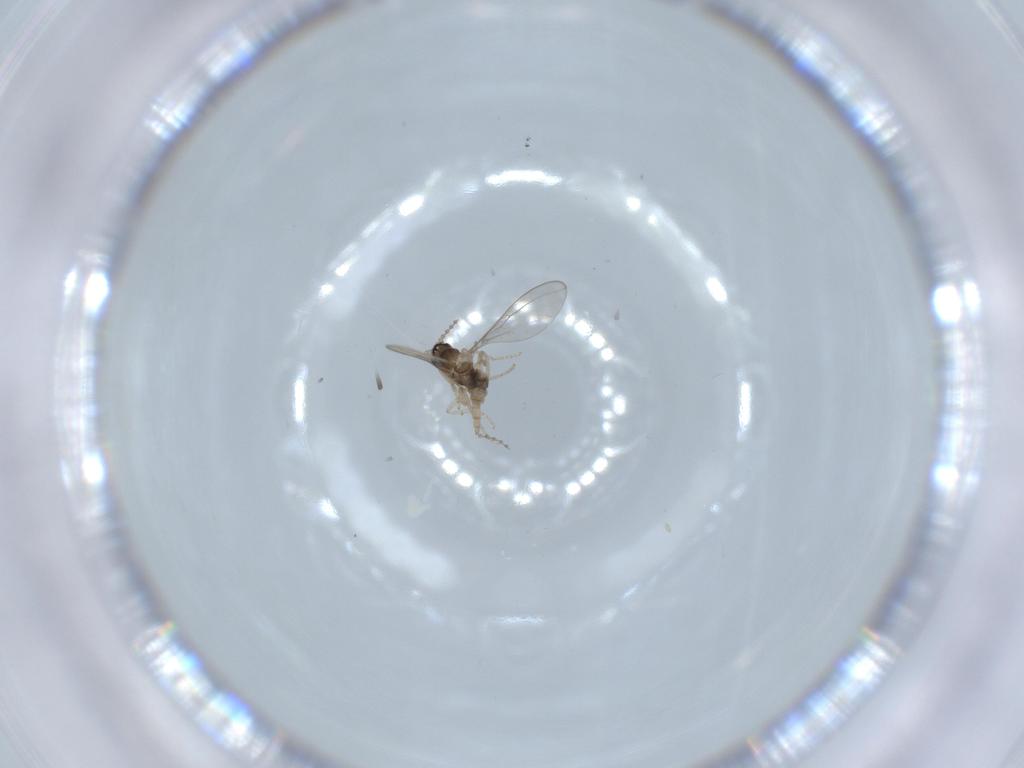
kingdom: Animalia
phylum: Arthropoda
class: Insecta
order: Diptera
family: Cecidomyiidae
